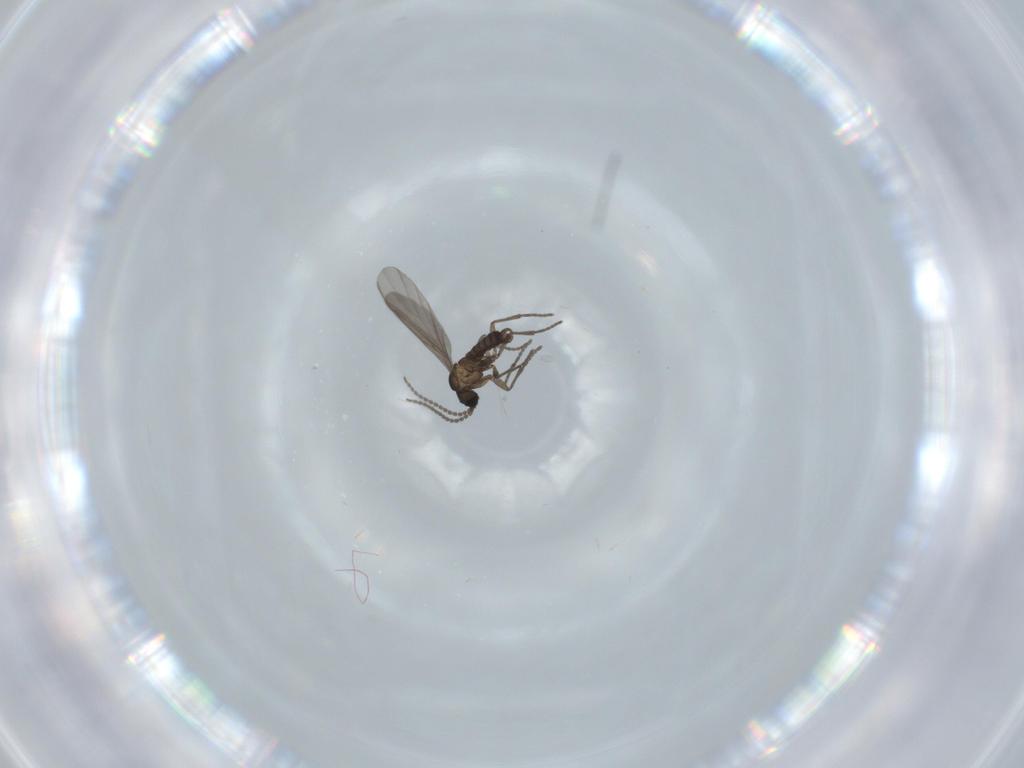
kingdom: Animalia
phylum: Arthropoda
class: Insecta
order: Diptera
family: Sciaridae
